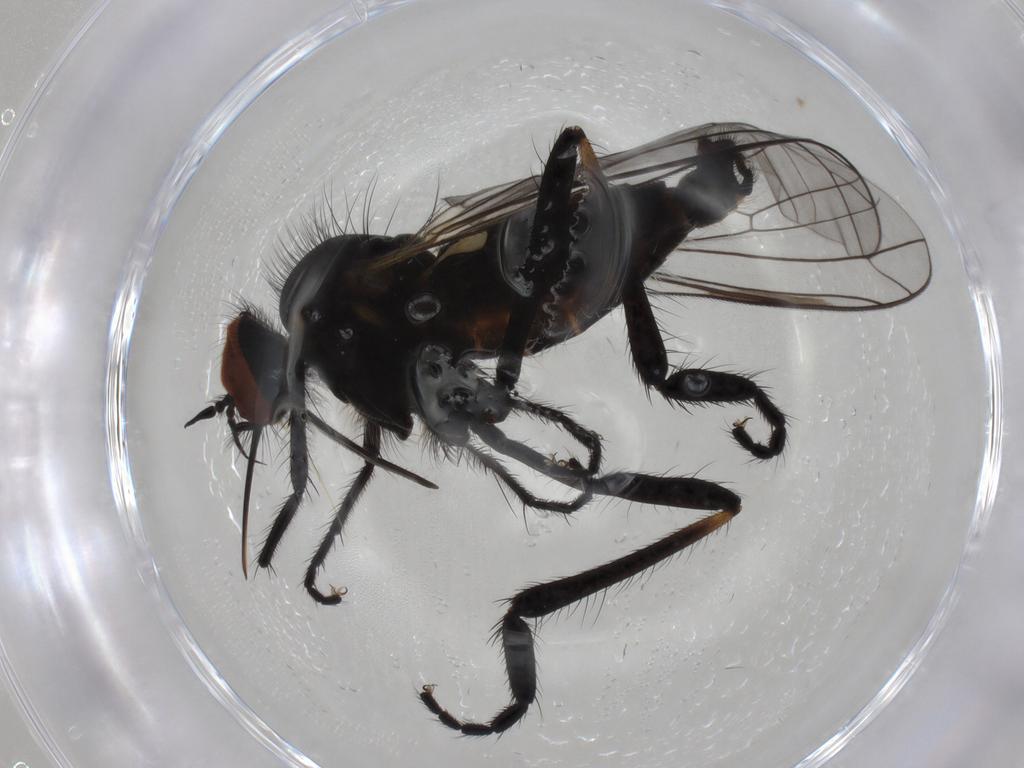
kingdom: Animalia
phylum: Arthropoda
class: Insecta
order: Diptera
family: Empididae
